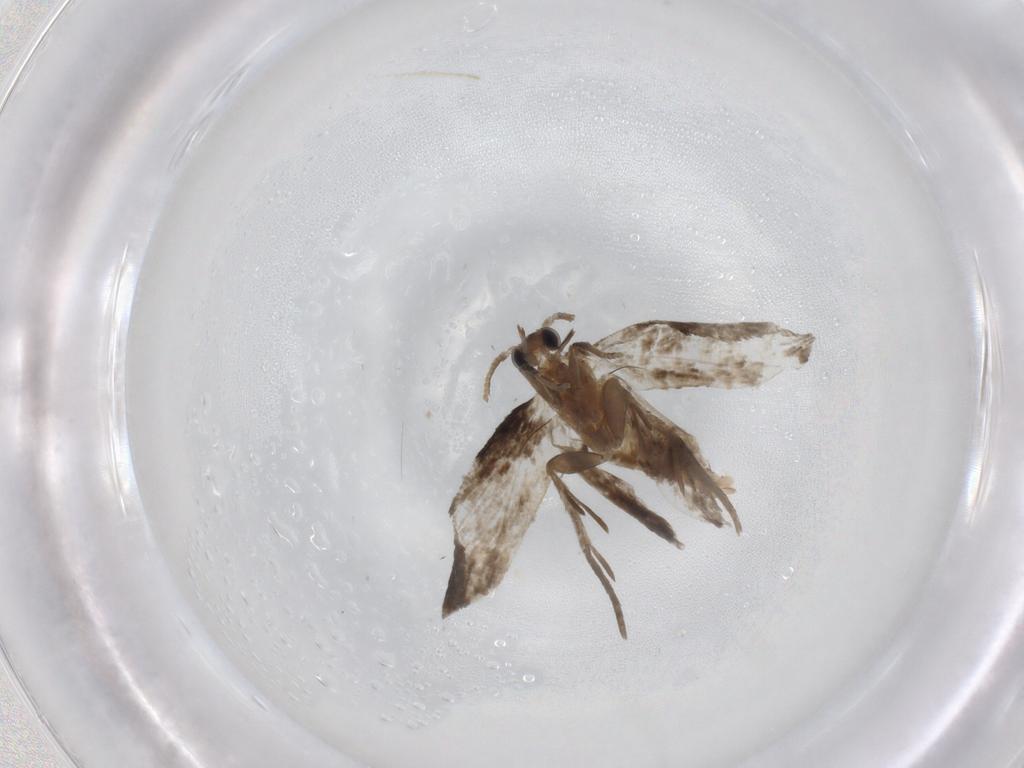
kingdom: Animalia
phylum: Arthropoda
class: Insecta
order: Lepidoptera
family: Psychidae
